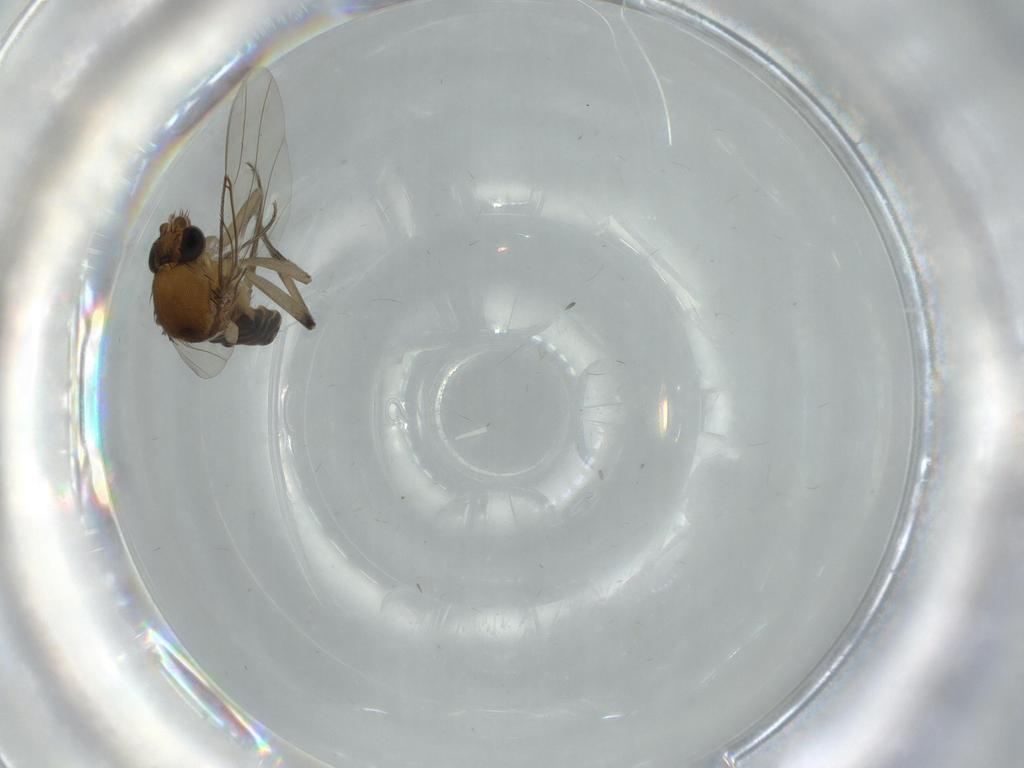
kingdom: Animalia
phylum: Arthropoda
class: Insecta
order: Diptera
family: Phoridae
